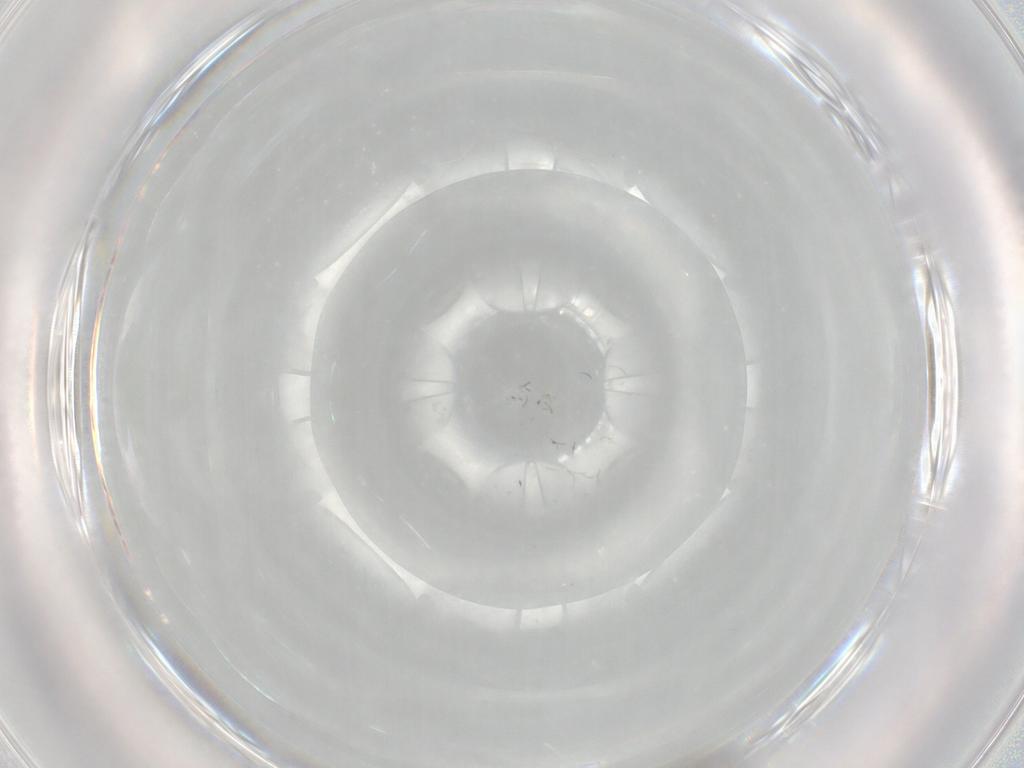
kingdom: Animalia
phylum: Arthropoda
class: Insecta
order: Diptera
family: Sciaridae
